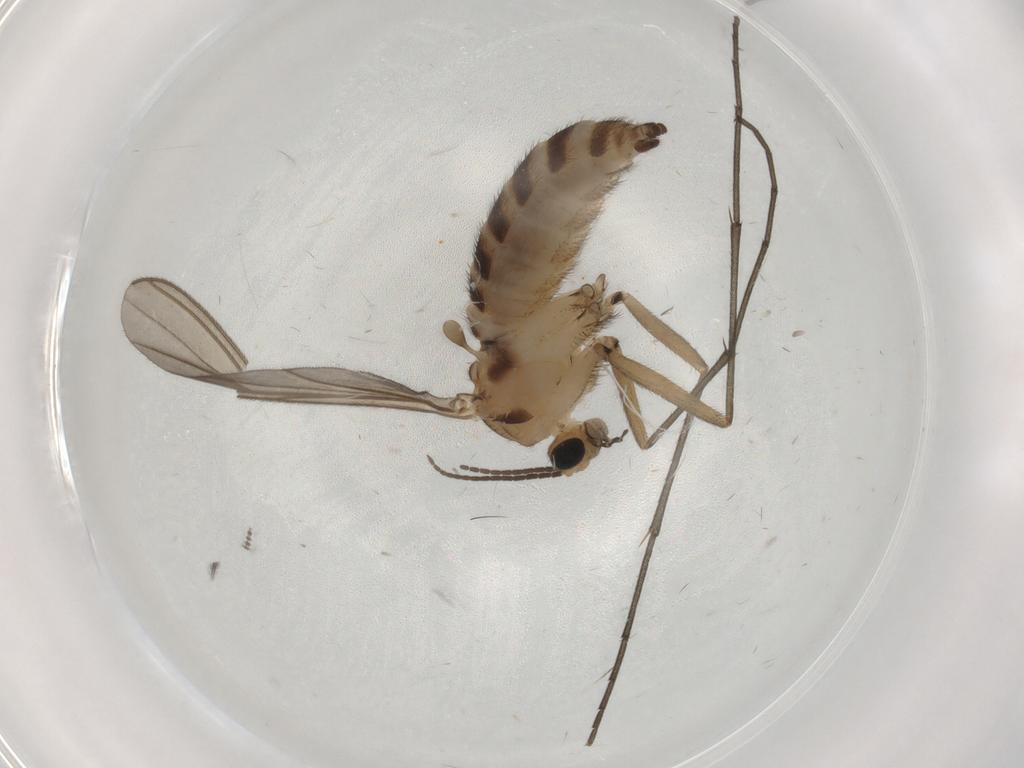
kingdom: Animalia
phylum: Arthropoda
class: Insecta
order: Diptera
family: Sciaridae
